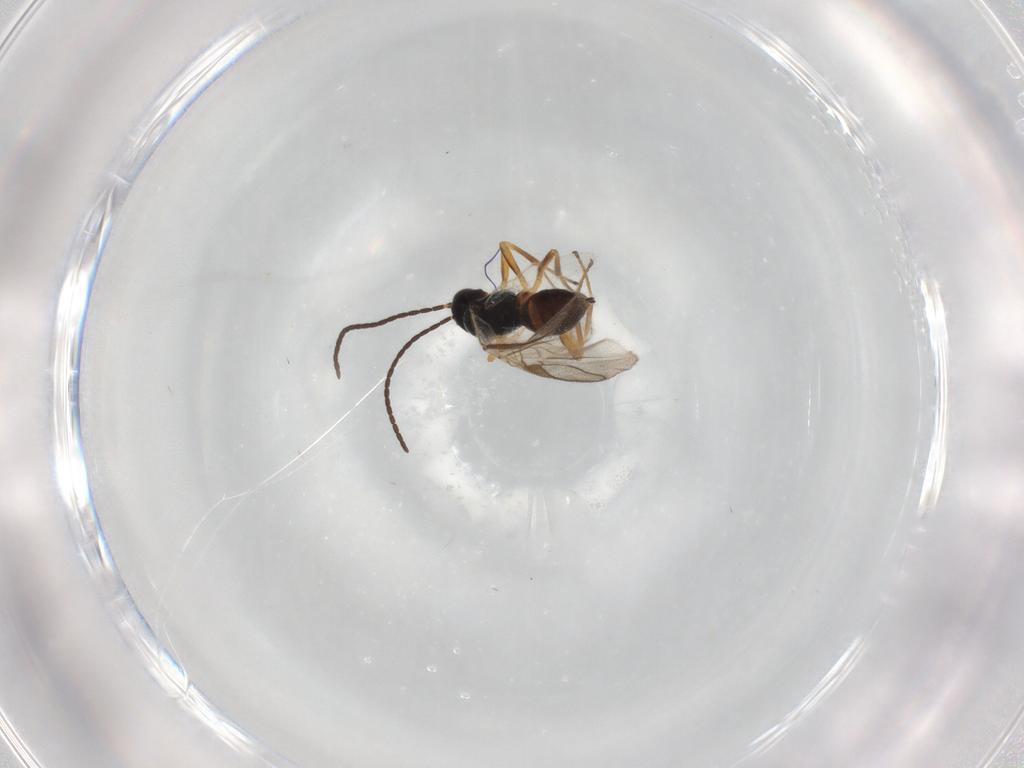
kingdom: Animalia
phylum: Arthropoda
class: Insecta
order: Hymenoptera
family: Braconidae
